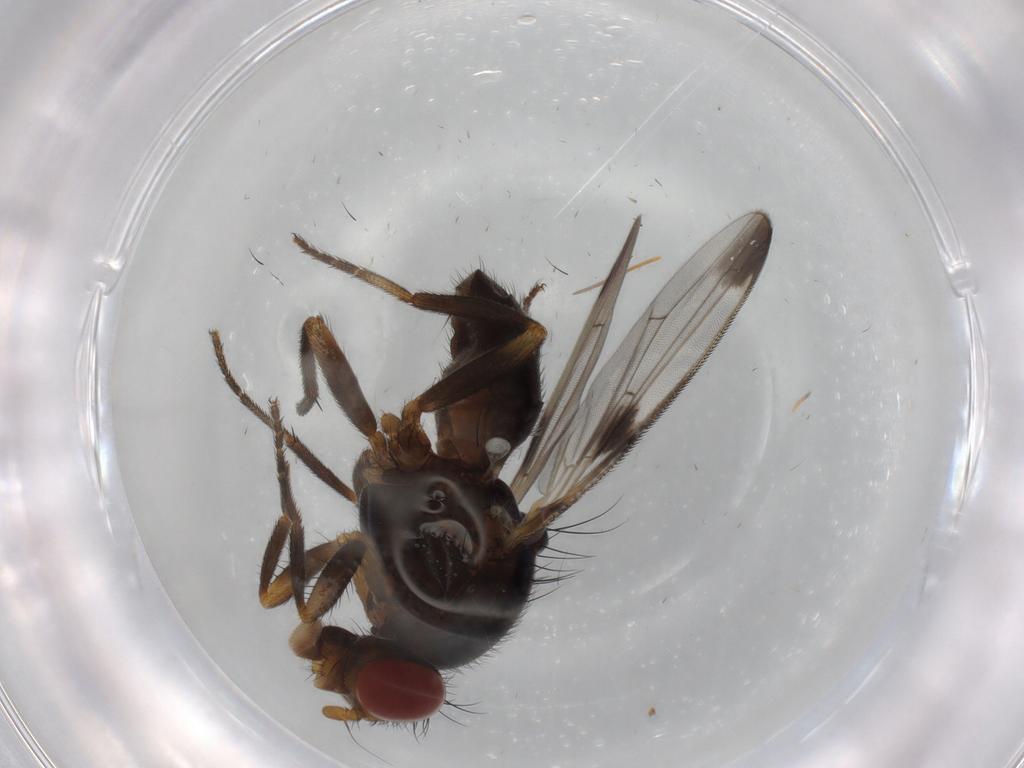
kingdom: Animalia
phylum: Arthropoda
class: Insecta
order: Diptera
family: Ulidiidae
